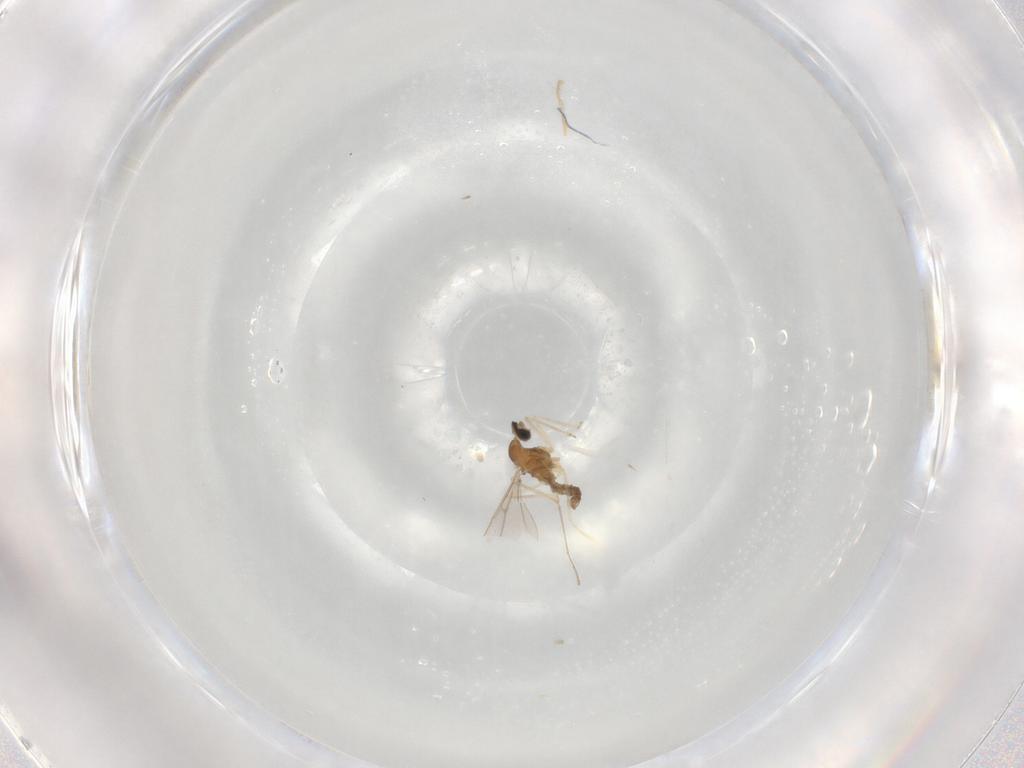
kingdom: Animalia
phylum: Arthropoda
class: Insecta
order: Diptera
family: Cecidomyiidae
